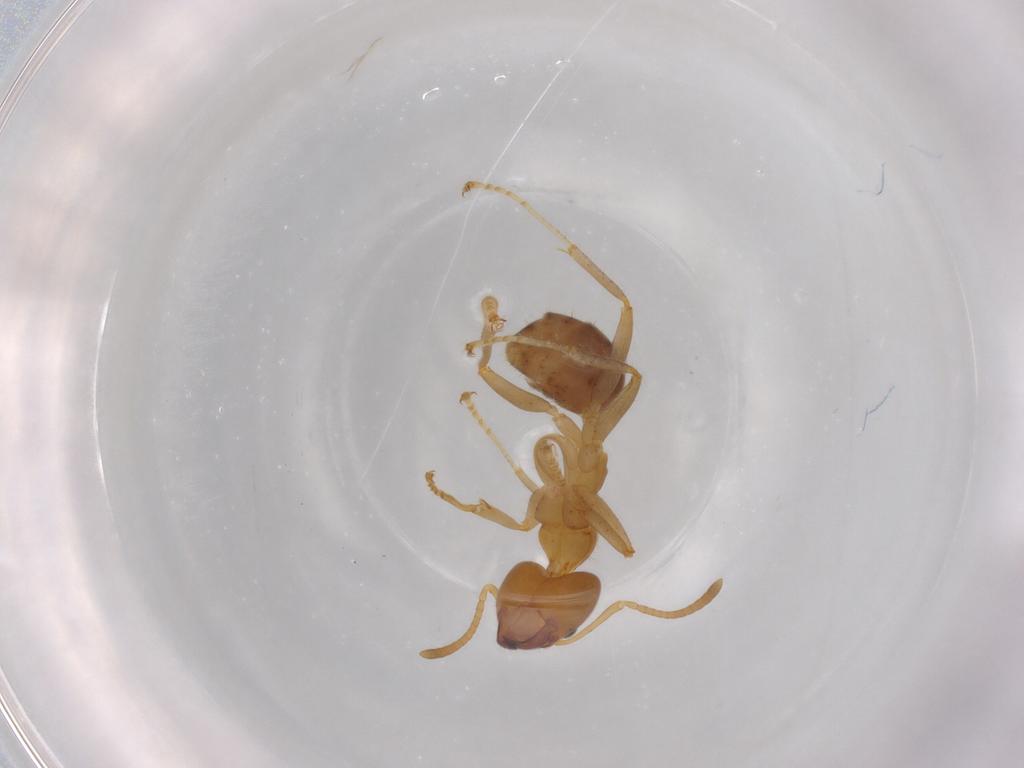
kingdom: Animalia
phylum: Arthropoda
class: Insecta
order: Hymenoptera
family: Formicidae
